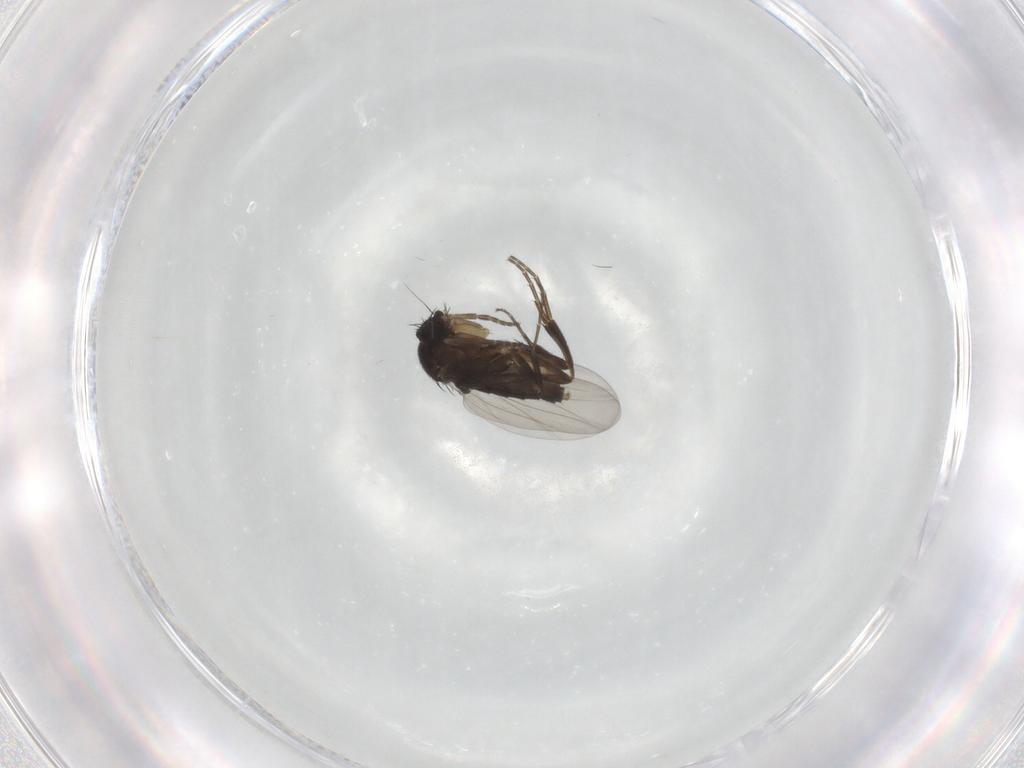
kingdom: Animalia
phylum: Arthropoda
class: Insecta
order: Diptera
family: Phoridae
